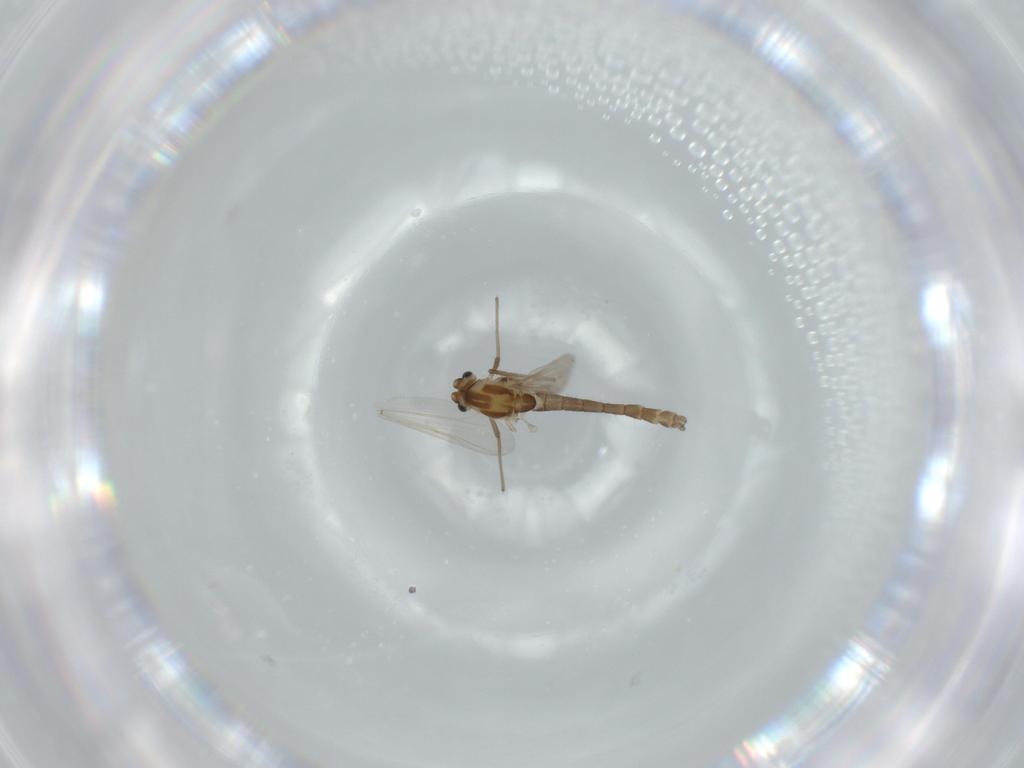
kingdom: Animalia
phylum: Arthropoda
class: Insecta
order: Diptera
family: Chironomidae
